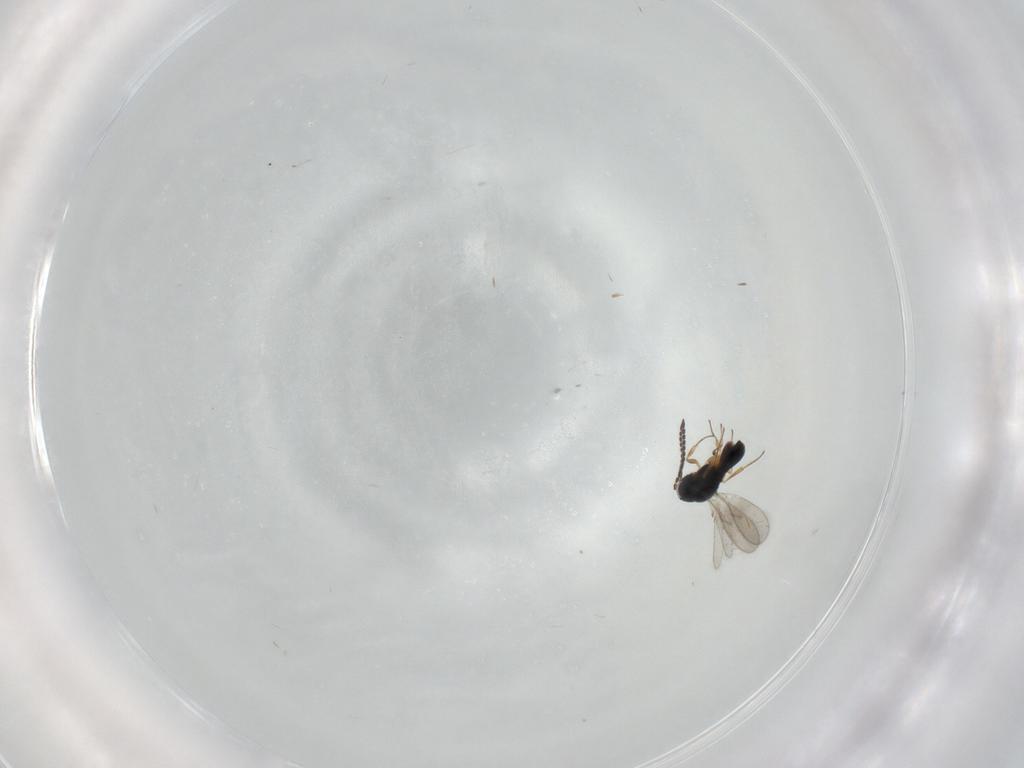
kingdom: Animalia
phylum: Arthropoda
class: Insecta
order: Hymenoptera
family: Scelionidae
